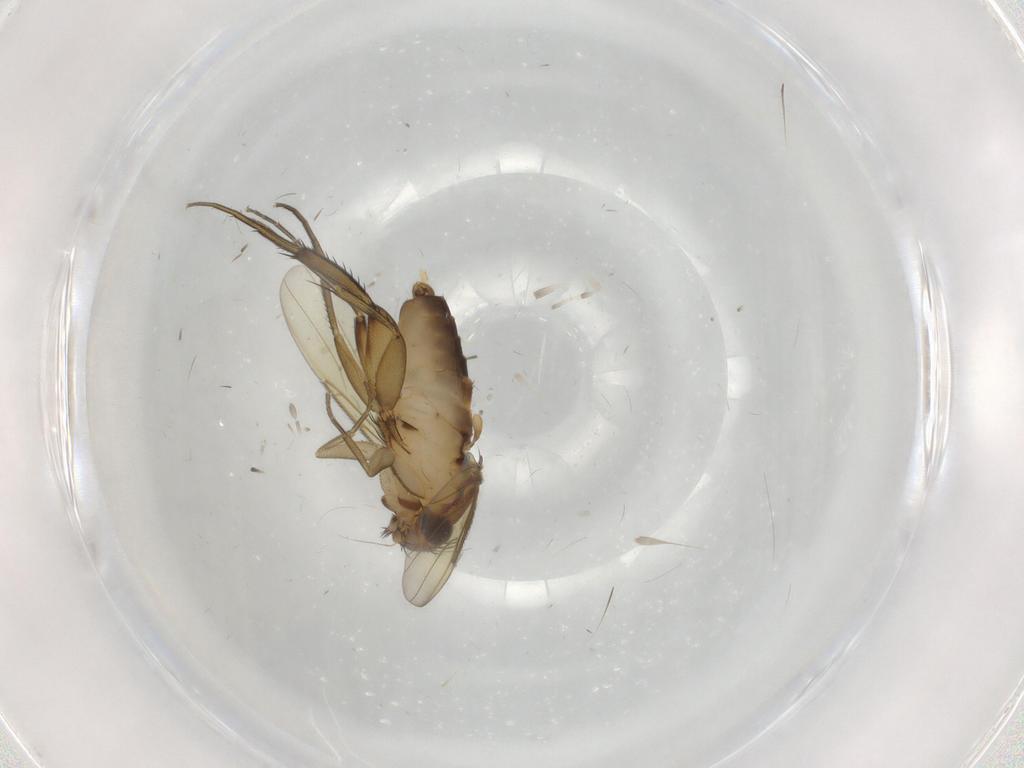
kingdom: Animalia
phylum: Arthropoda
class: Insecta
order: Diptera
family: Phoridae
